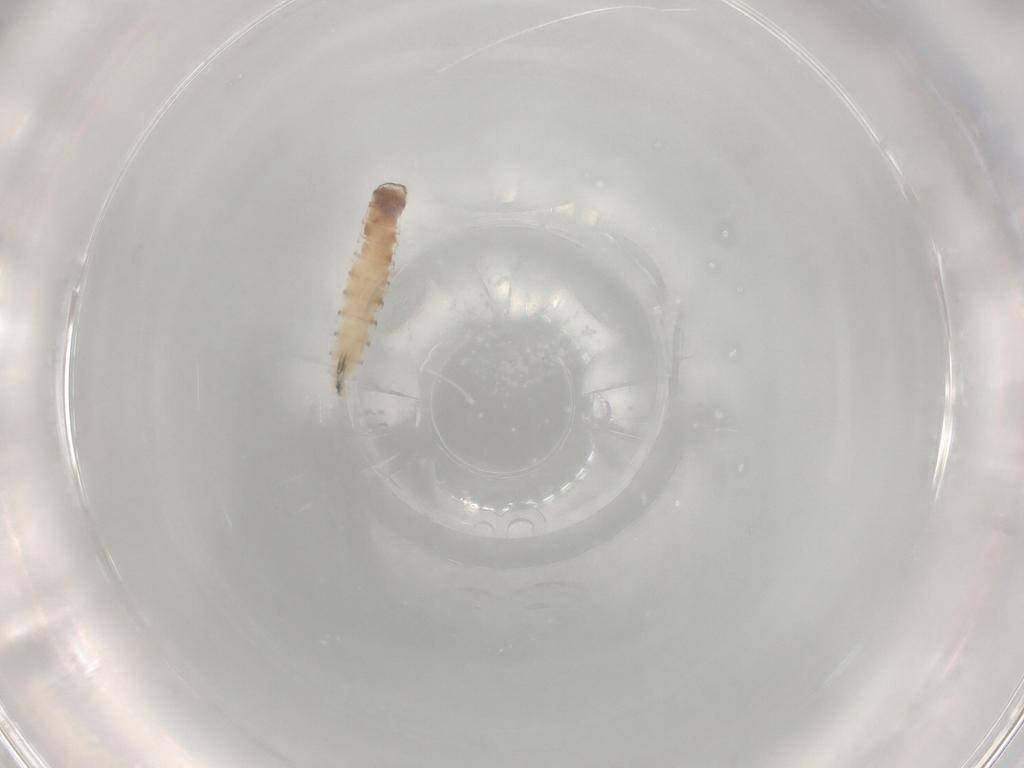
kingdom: Animalia
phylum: Arthropoda
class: Insecta
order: Diptera
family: Sarcophagidae
